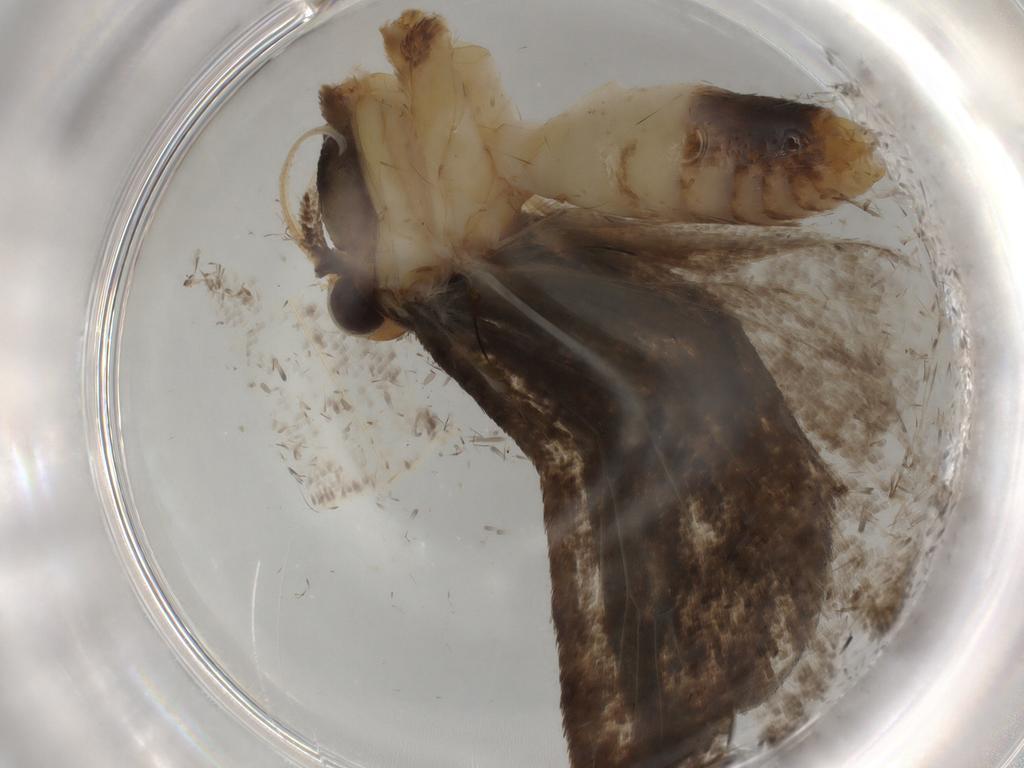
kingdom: Animalia
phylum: Arthropoda
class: Insecta
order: Lepidoptera
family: Oecophoridae
